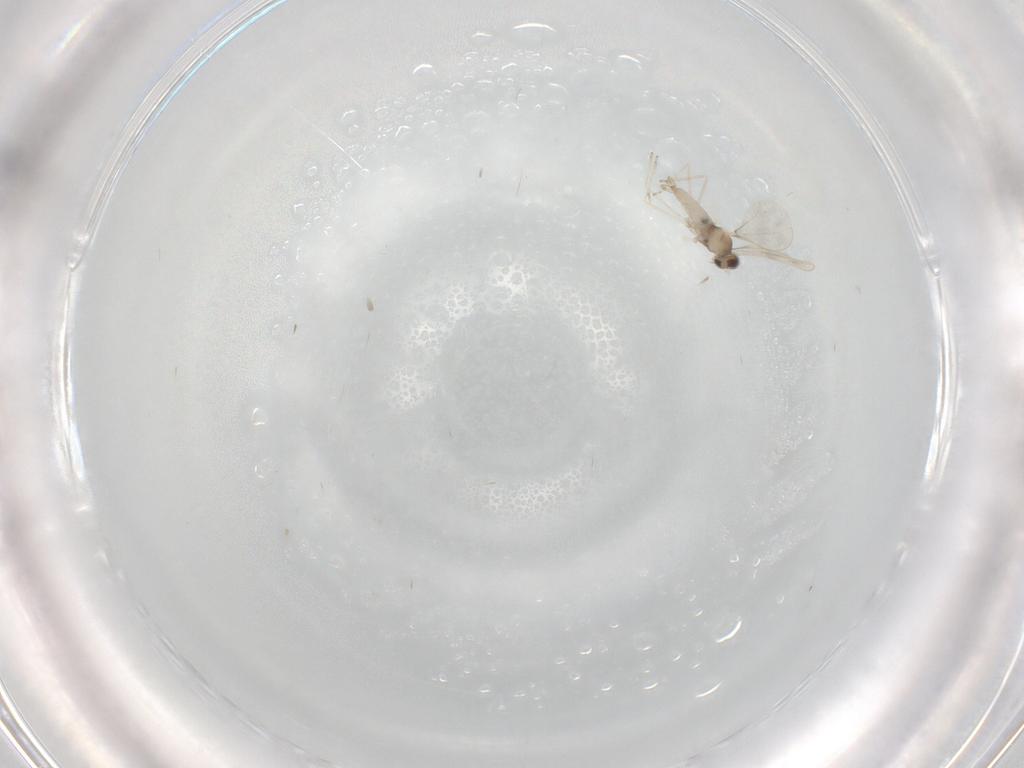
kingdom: Animalia
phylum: Arthropoda
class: Insecta
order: Diptera
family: Cecidomyiidae
